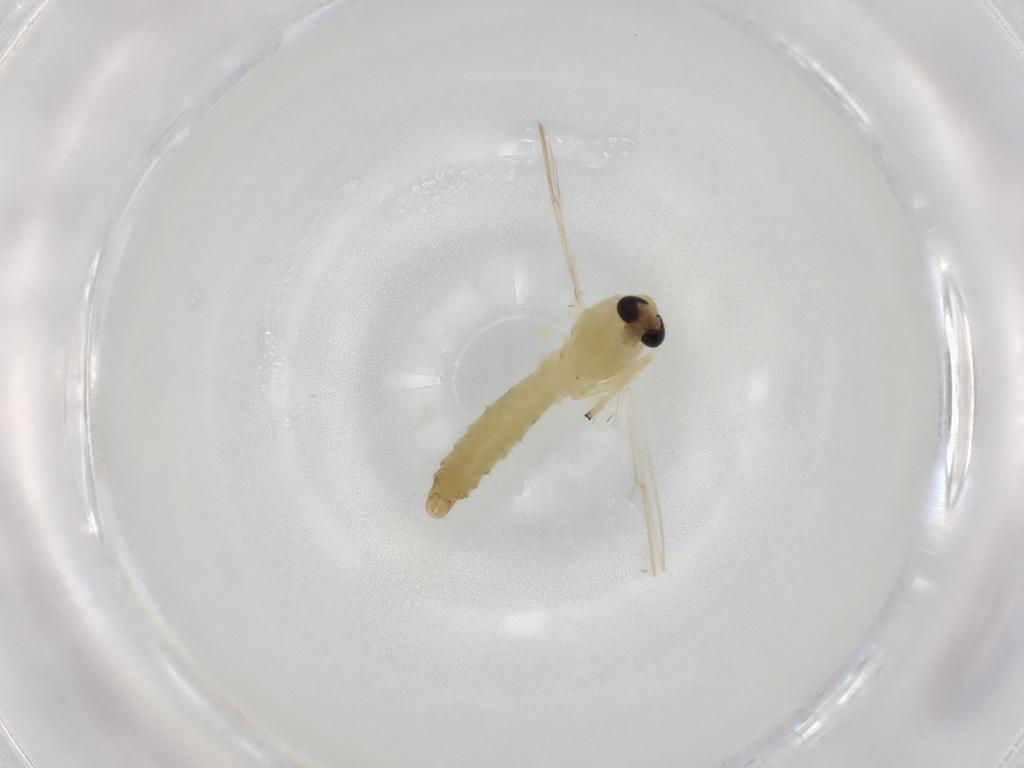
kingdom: Animalia
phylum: Arthropoda
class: Insecta
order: Diptera
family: Chironomidae
